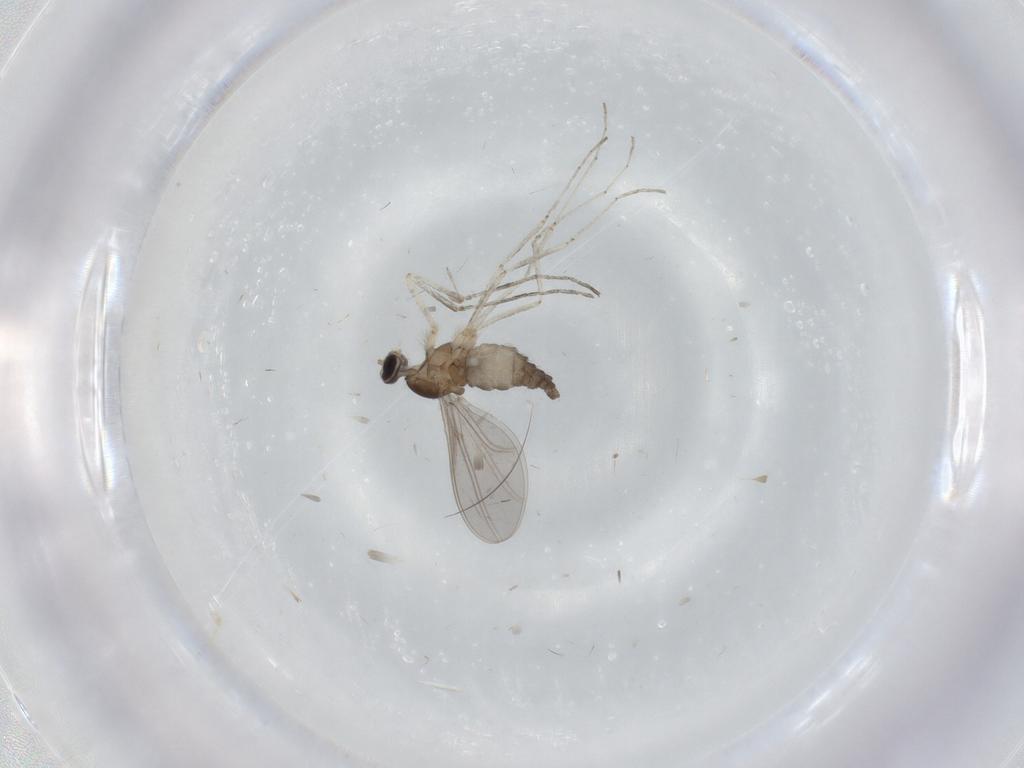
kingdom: Animalia
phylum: Arthropoda
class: Insecta
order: Diptera
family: Cecidomyiidae
